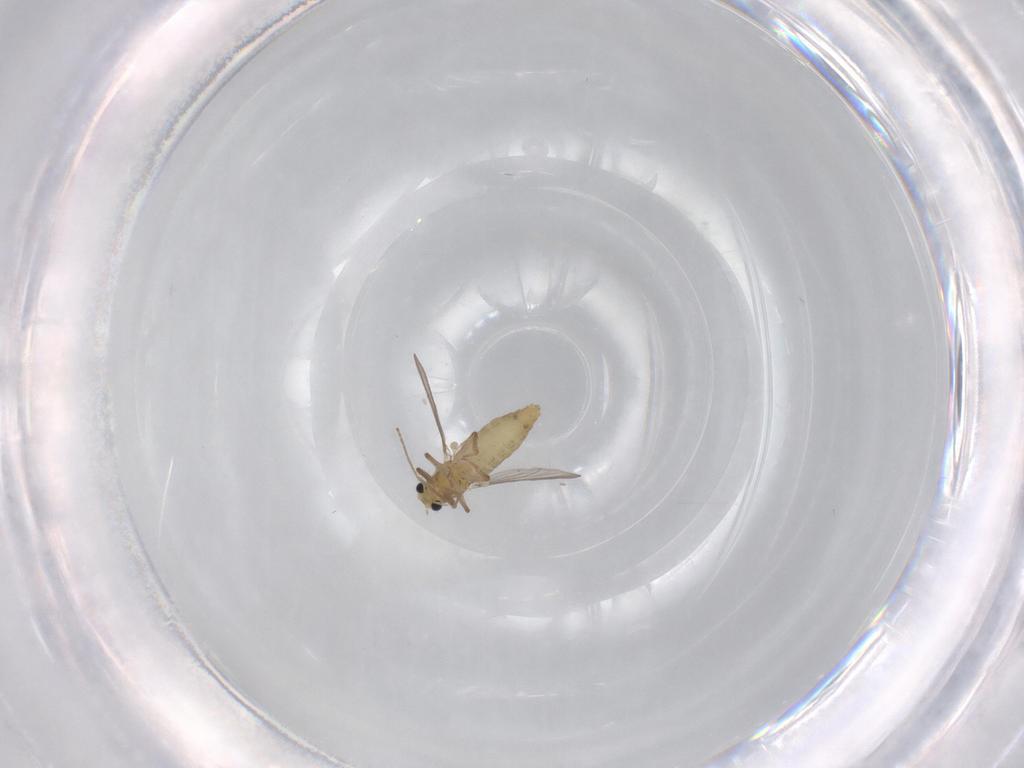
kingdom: Animalia
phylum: Arthropoda
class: Insecta
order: Diptera
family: Chironomidae
